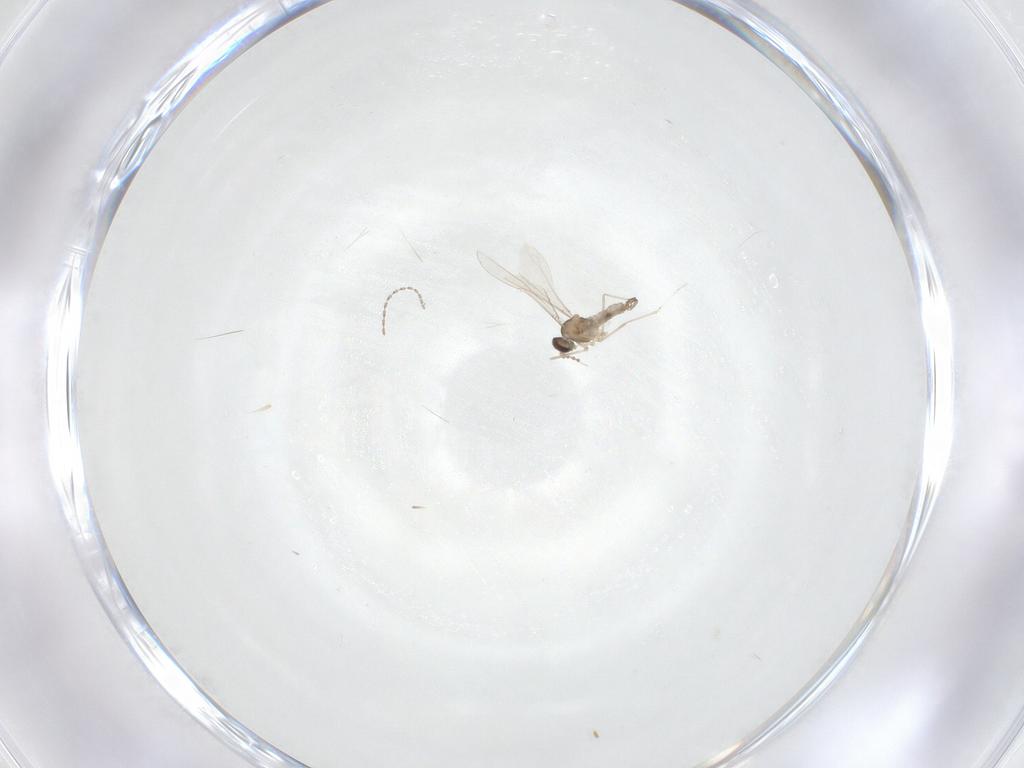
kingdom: Animalia
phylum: Arthropoda
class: Insecta
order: Diptera
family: Cecidomyiidae
